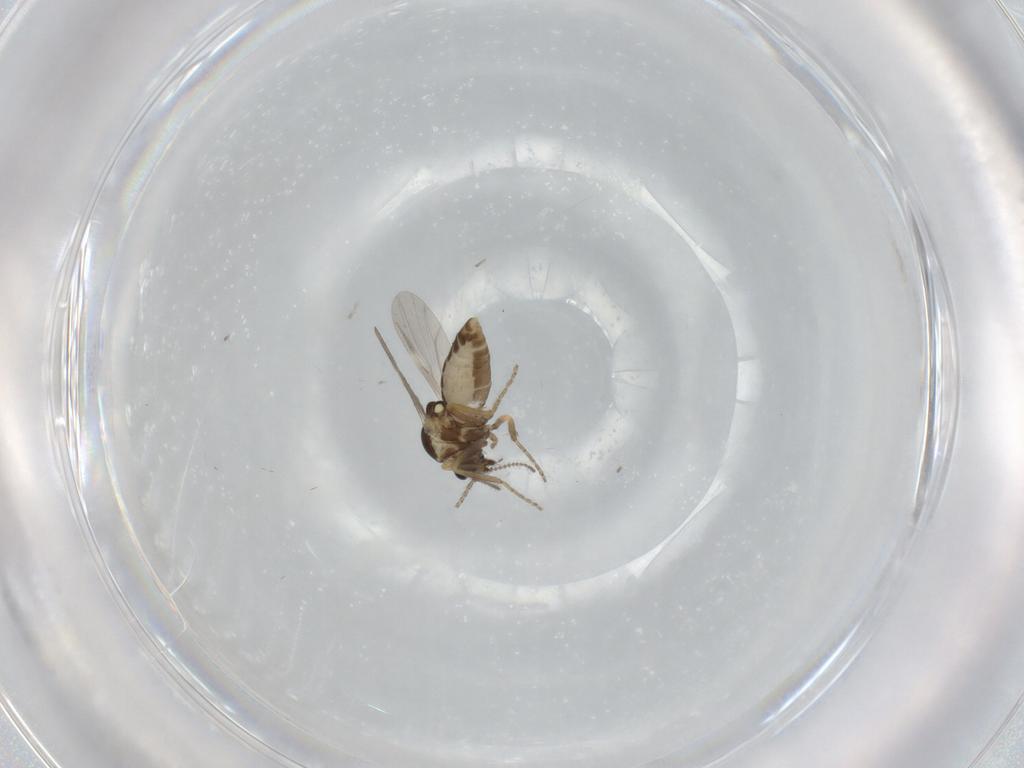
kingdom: Animalia
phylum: Arthropoda
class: Insecta
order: Diptera
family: Ceratopogonidae
